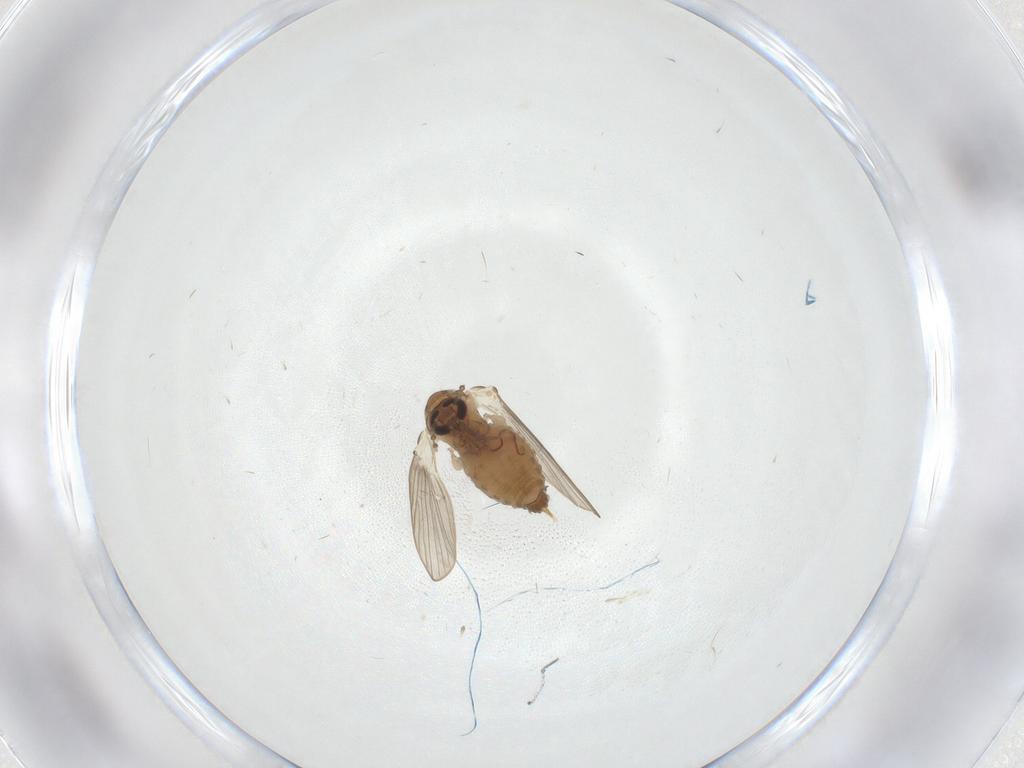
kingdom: Animalia
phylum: Arthropoda
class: Insecta
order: Diptera
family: Psychodidae
